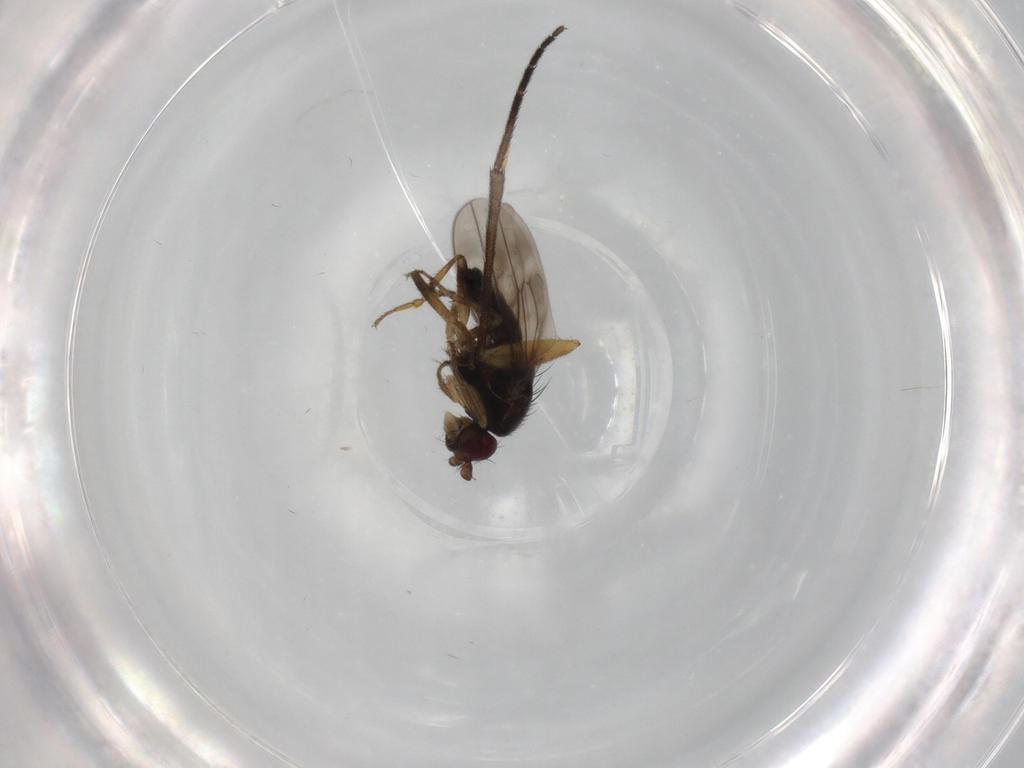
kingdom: Animalia
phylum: Arthropoda
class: Insecta
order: Diptera
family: Sphaeroceridae
